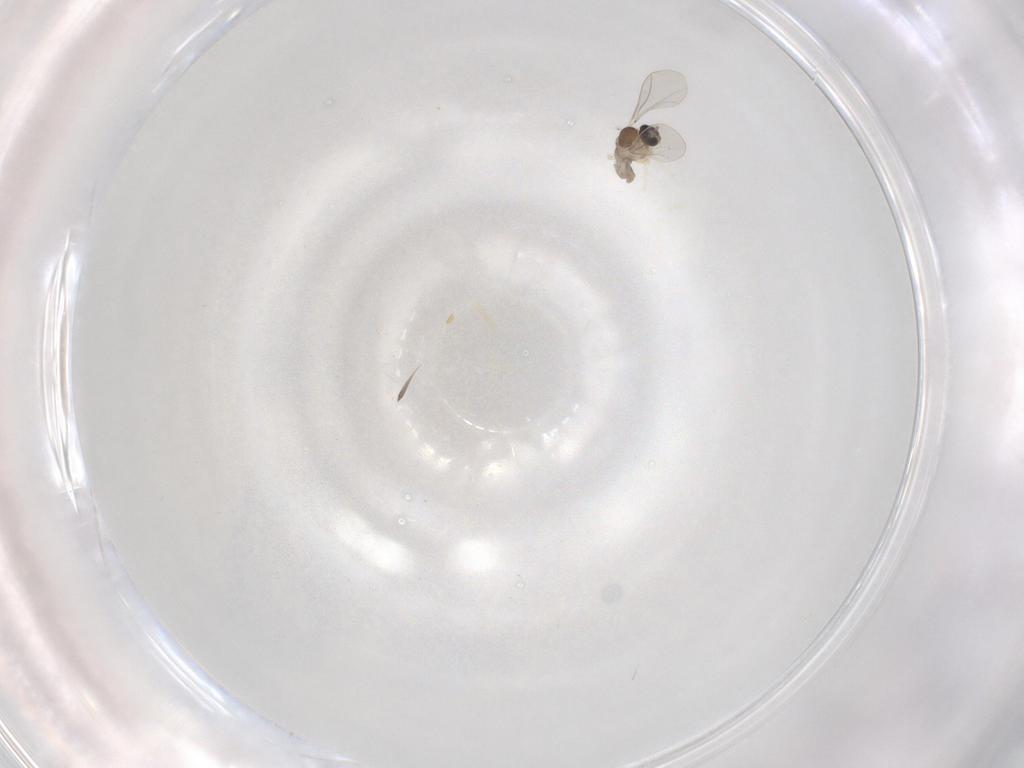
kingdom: Animalia
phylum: Arthropoda
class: Insecta
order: Diptera
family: Cecidomyiidae
